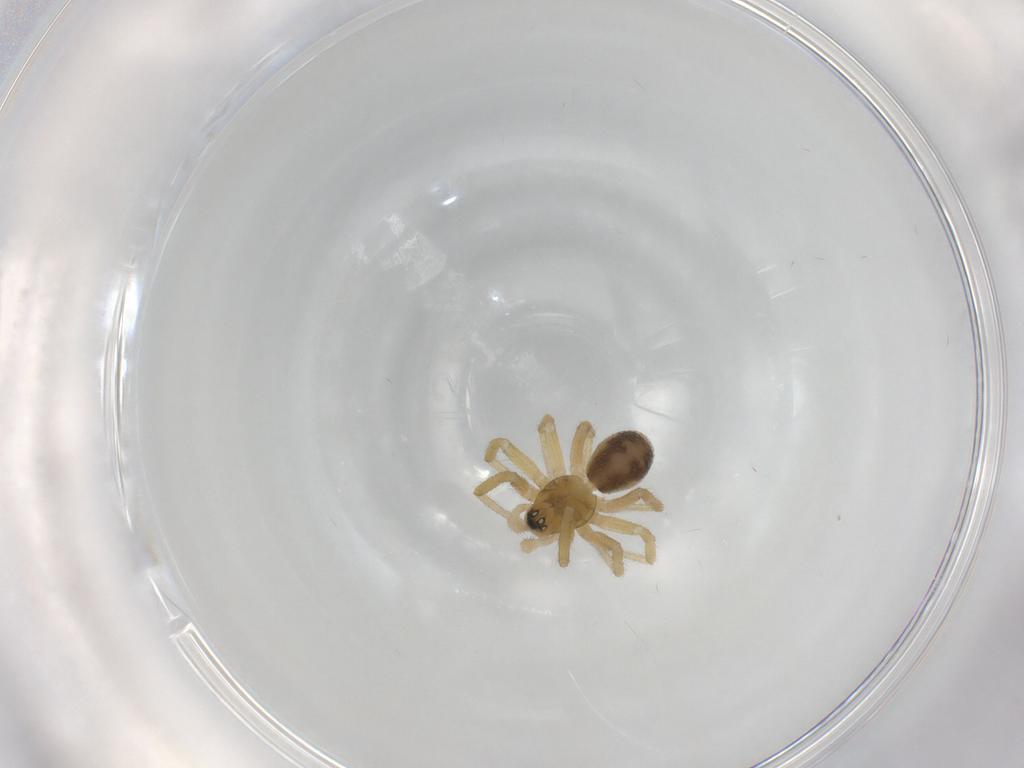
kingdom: Animalia
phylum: Arthropoda
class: Arachnida
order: Araneae
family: Linyphiidae
